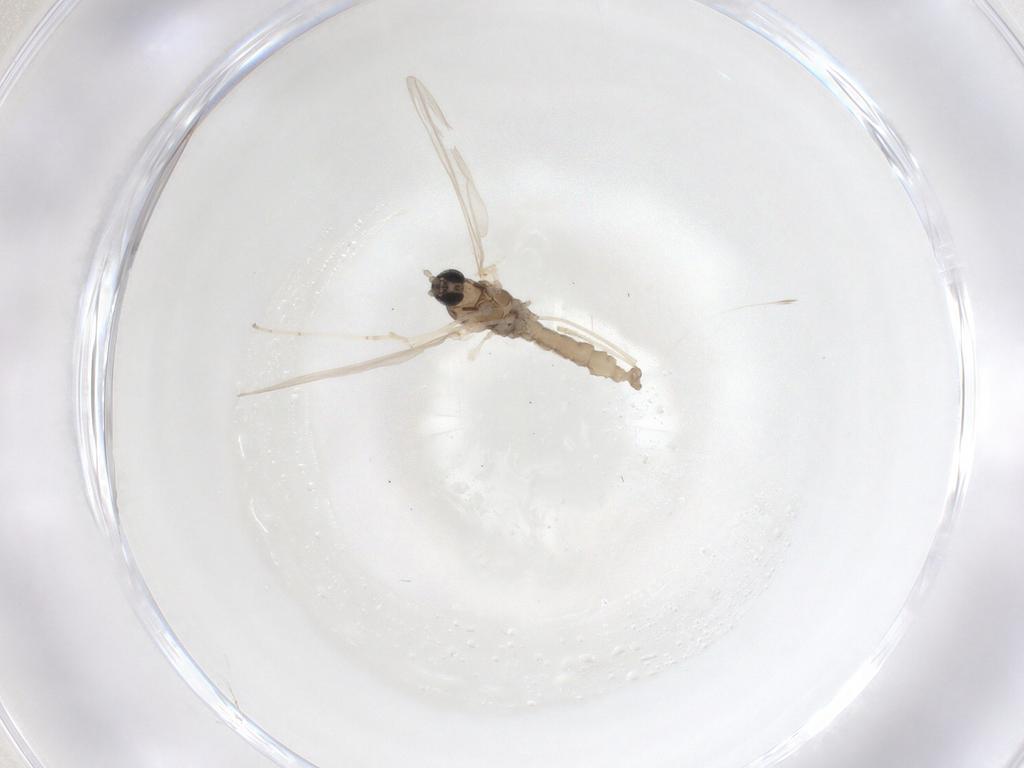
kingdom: Animalia
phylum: Arthropoda
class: Insecta
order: Diptera
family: Cecidomyiidae
